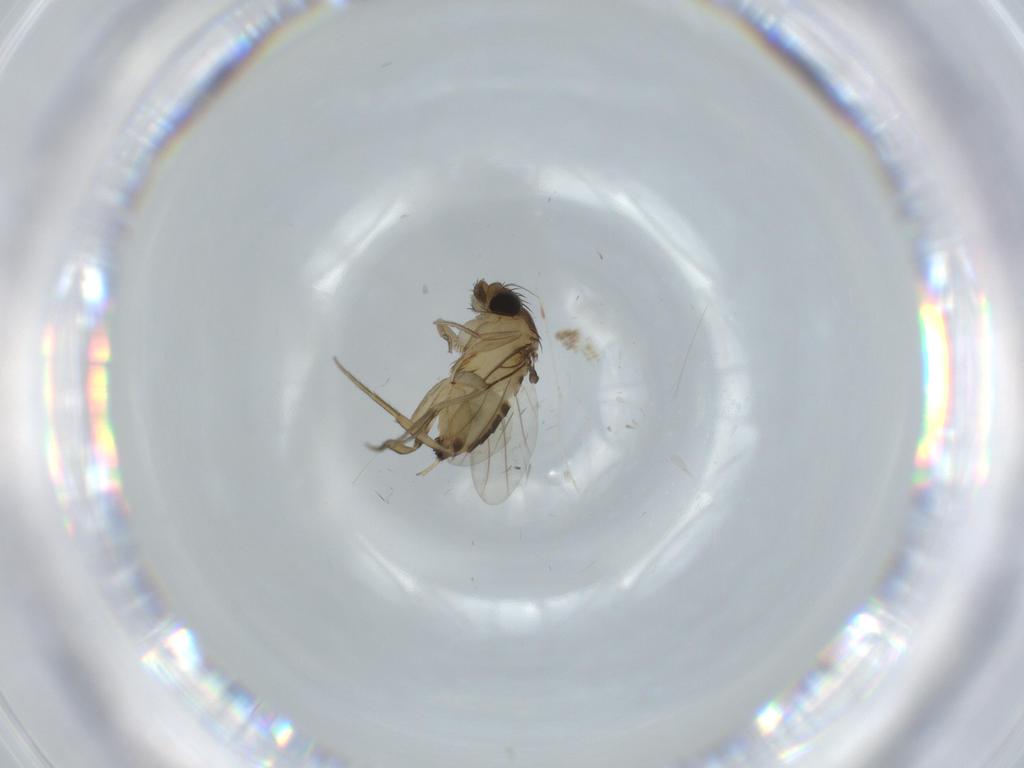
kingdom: Animalia
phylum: Arthropoda
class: Insecta
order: Diptera
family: Phoridae
